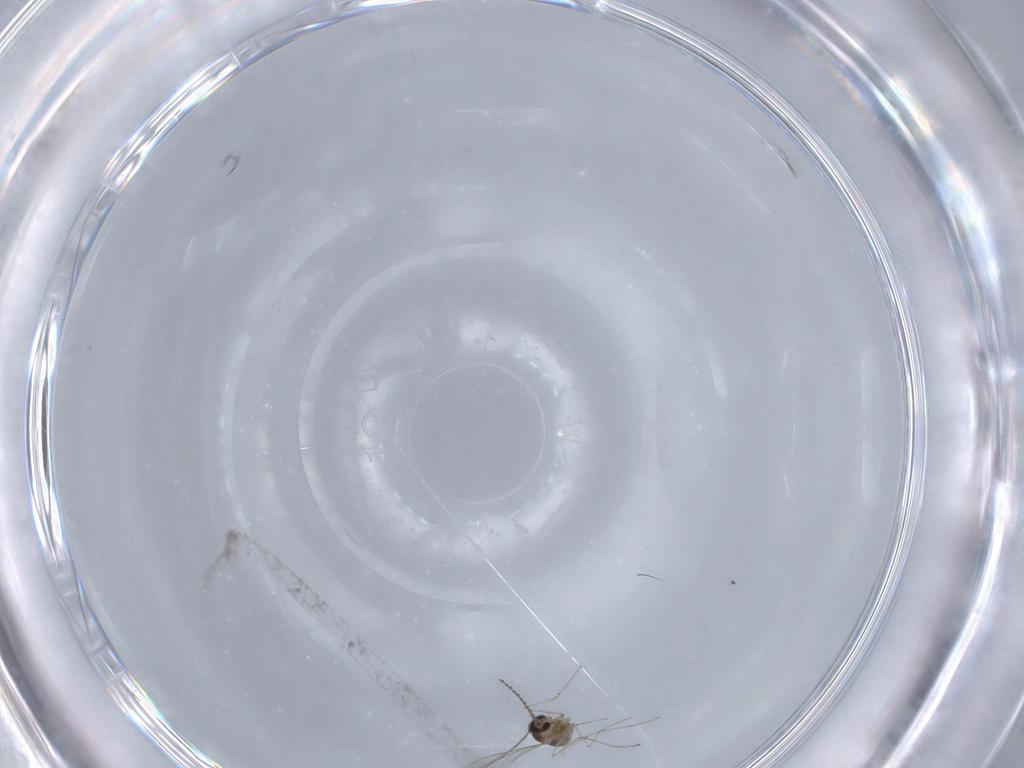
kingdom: Animalia
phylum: Arthropoda
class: Insecta
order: Diptera
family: Cecidomyiidae
